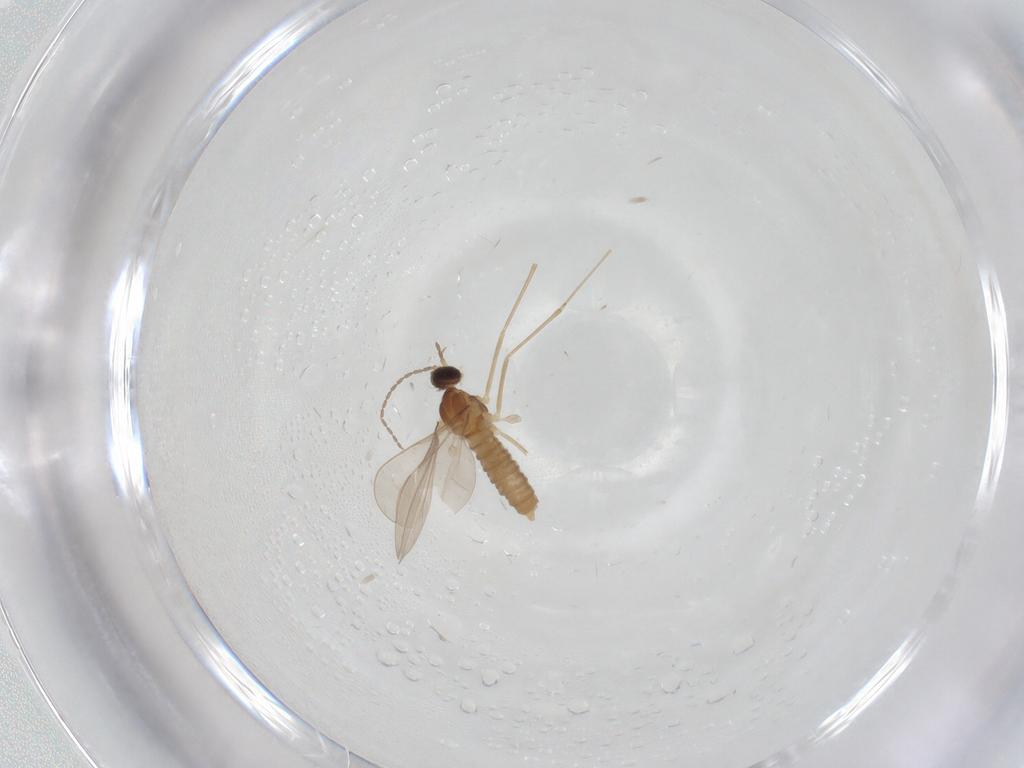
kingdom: Animalia
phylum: Arthropoda
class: Insecta
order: Diptera
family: Cecidomyiidae
